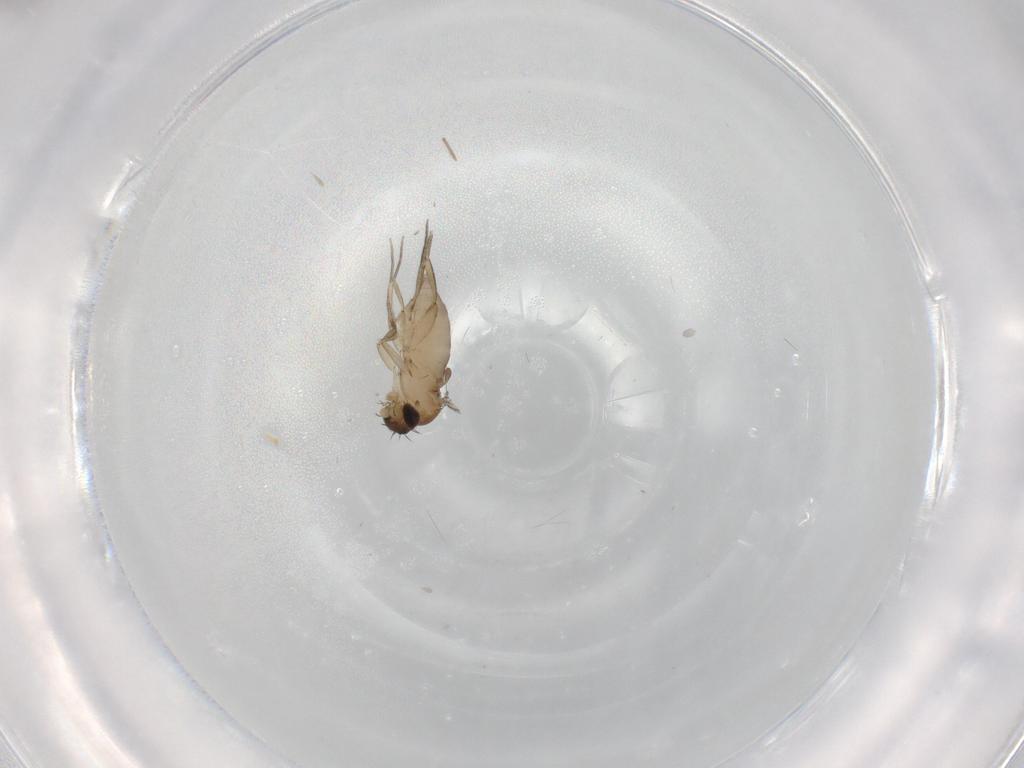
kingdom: Animalia
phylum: Arthropoda
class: Insecta
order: Diptera
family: Phoridae
